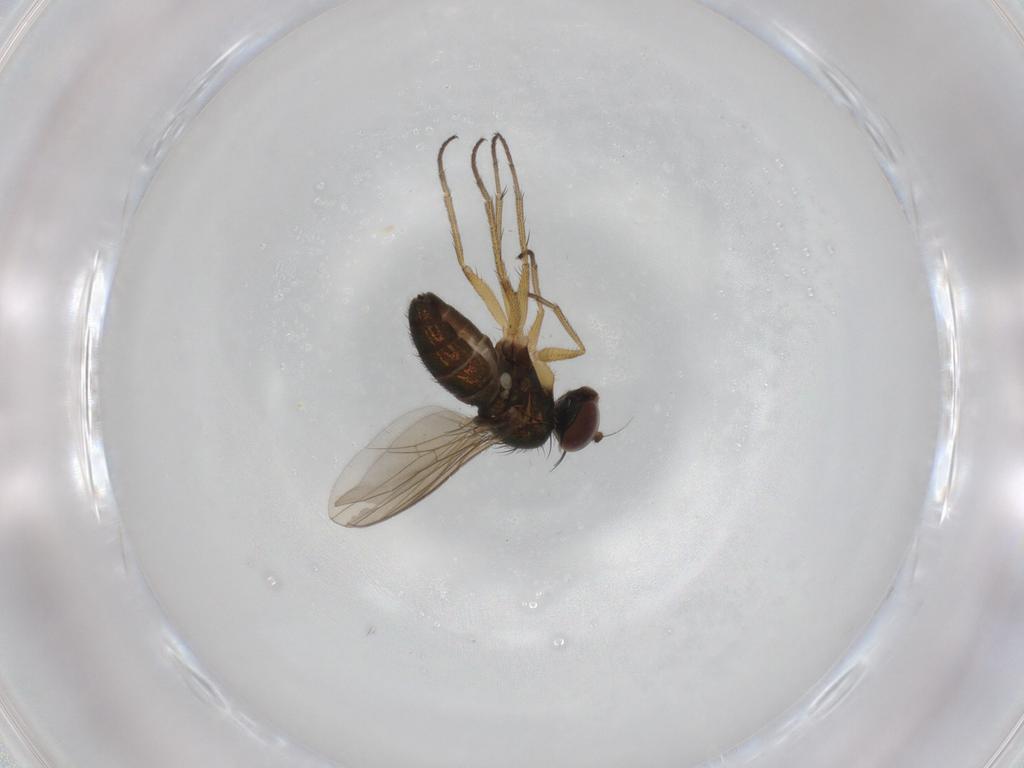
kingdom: Animalia
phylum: Arthropoda
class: Insecta
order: Diptera
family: Dolichopodidae
